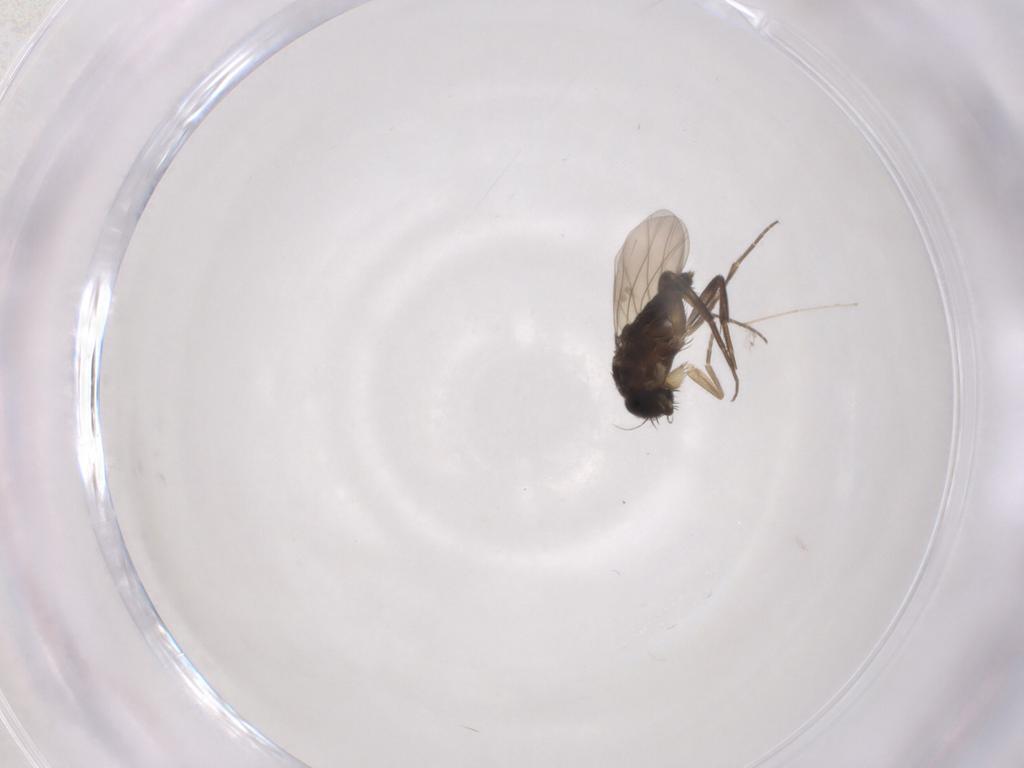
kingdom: Animalia
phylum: Arthropoda
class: Insecta
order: Diptera
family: Phoridae
